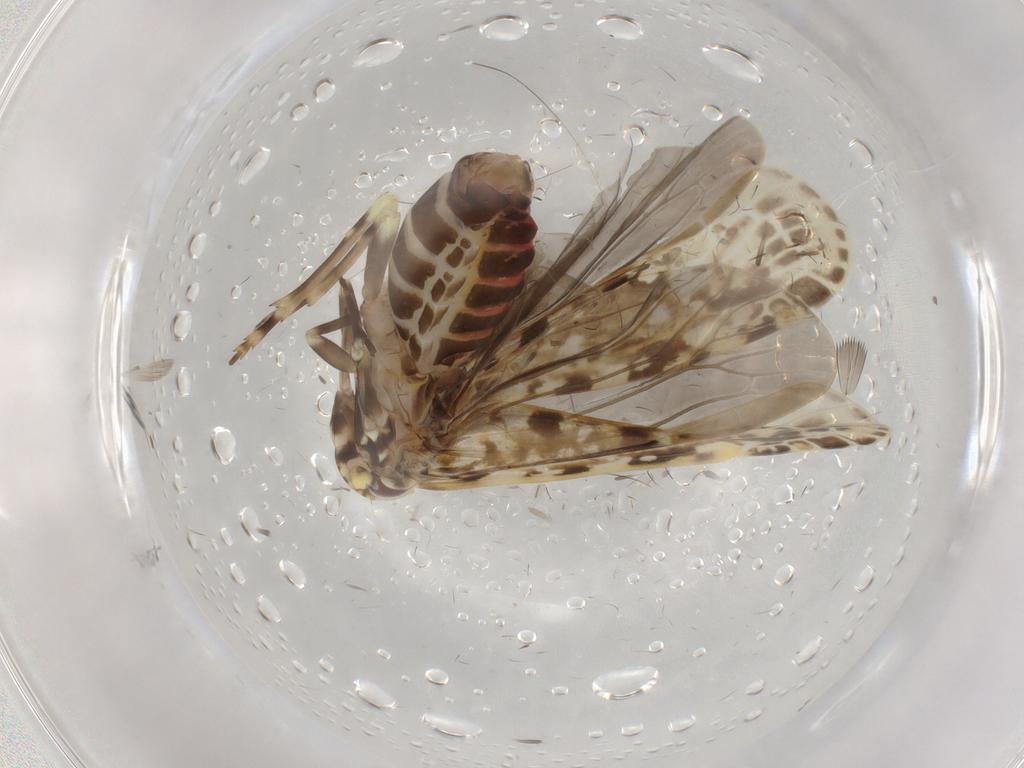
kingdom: Animalia
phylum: Arthropoda
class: Insecta
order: Hemiptera
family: Achilidae
